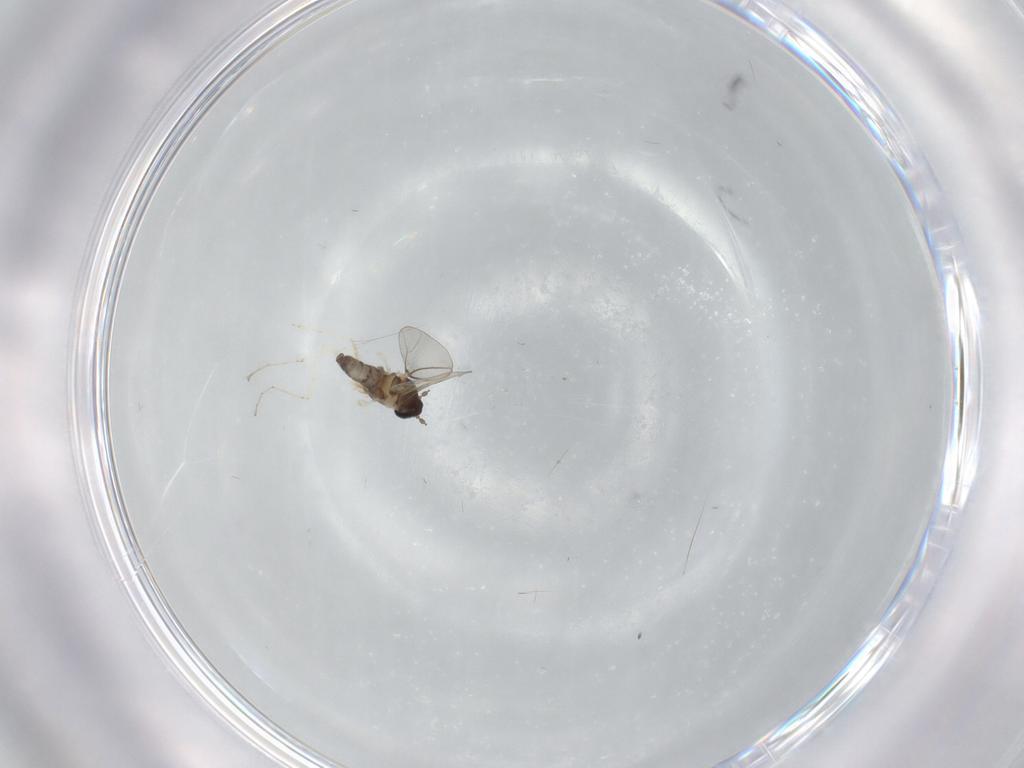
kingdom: Animalia
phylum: Arthropoda
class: Insecta
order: Diptera
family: Cecidomyiidae
